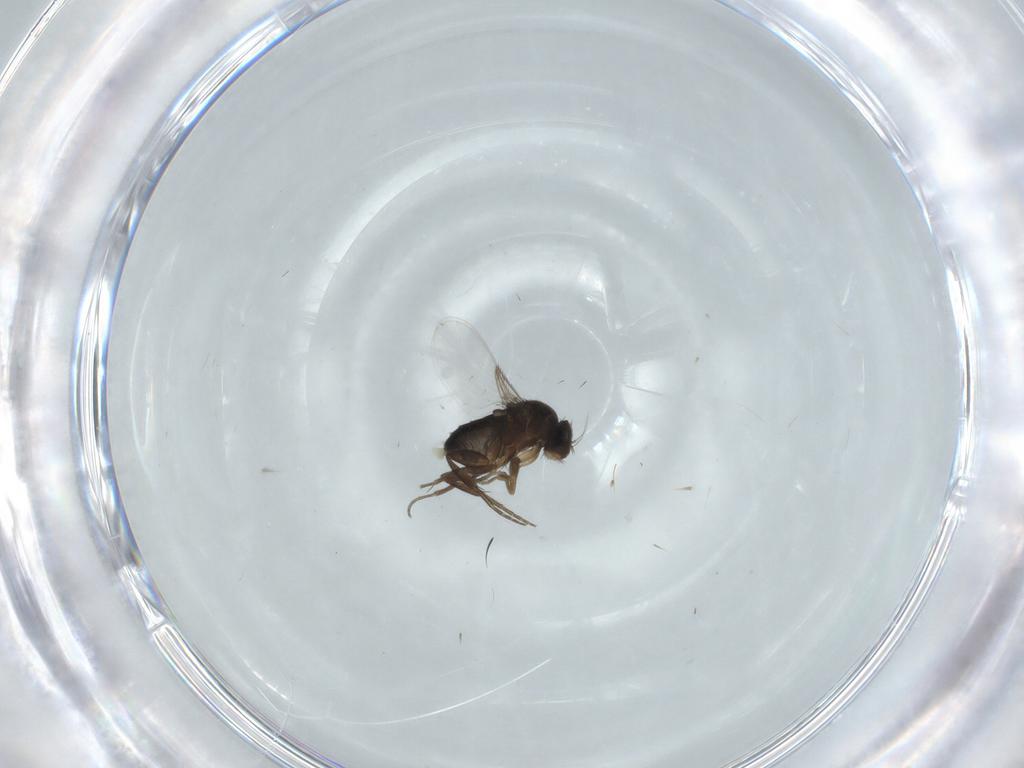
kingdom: Animalia
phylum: Arthropoda
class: Insecta
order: Diptera
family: Phoridae
